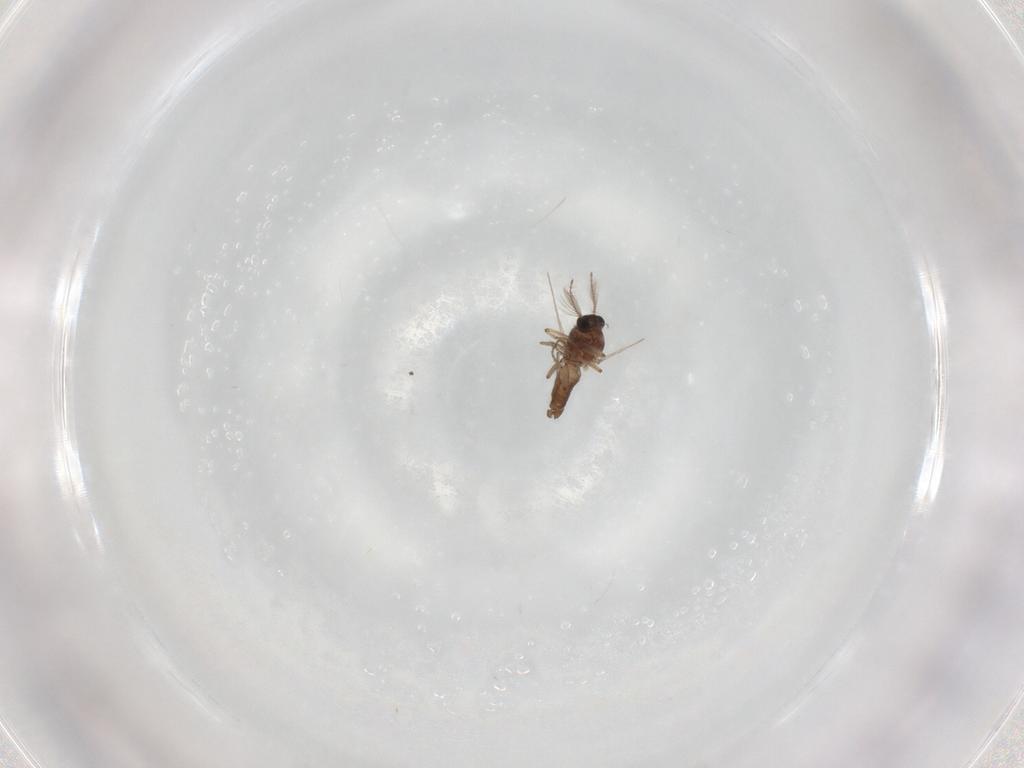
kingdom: Animalia
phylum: Arthropoda
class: Insecta
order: Diptera
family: Ceratopogonidae
